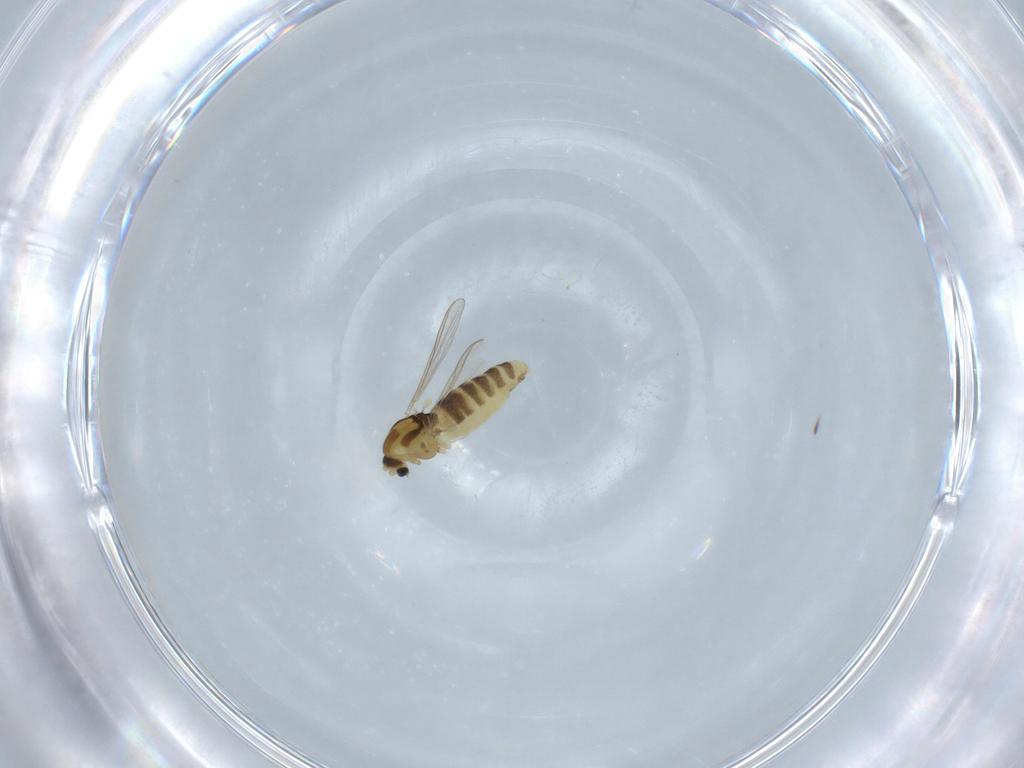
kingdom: Animalia
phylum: Arthropoda
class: Insecta
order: Diptera
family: Chironomidae
